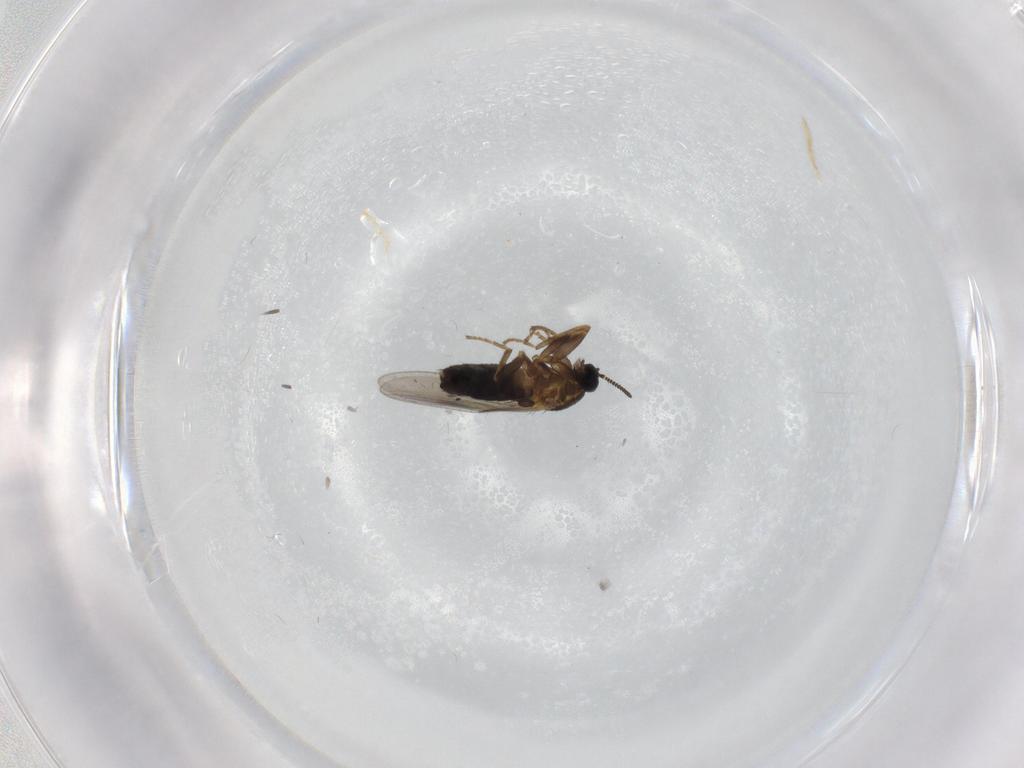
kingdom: Animalia
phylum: Arthropoda
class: Insecta
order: Diptera
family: Scatopsidae
